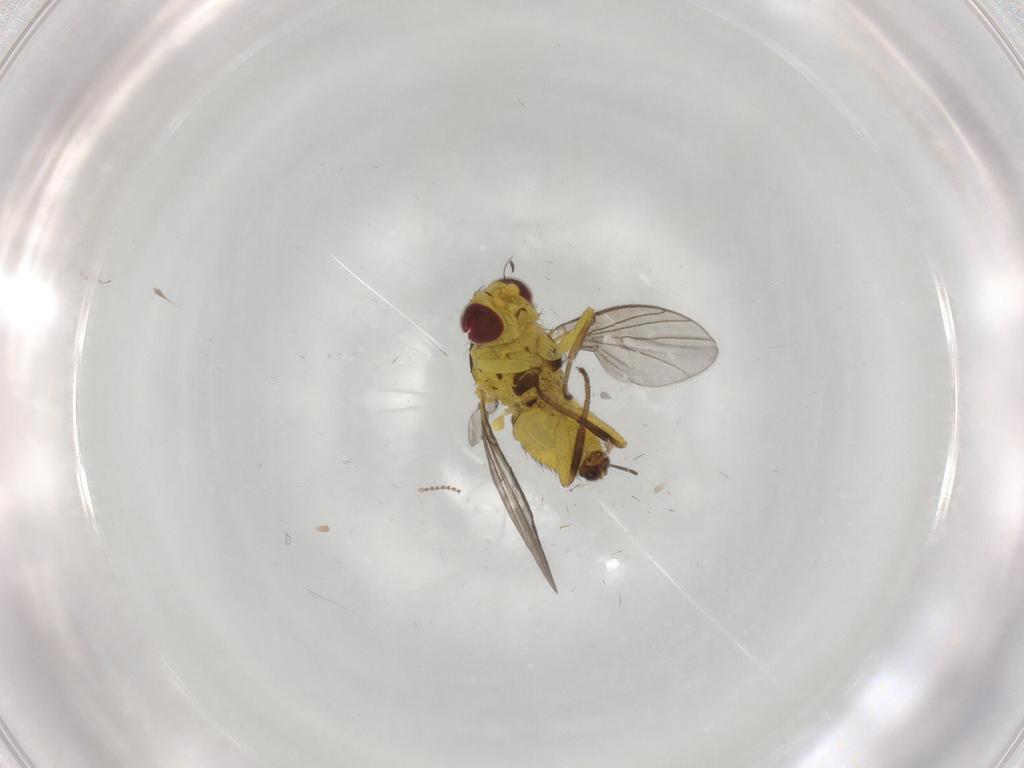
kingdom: Animalia
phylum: Arthropoda
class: Insecta
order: Diptera
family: Agromyzidae
